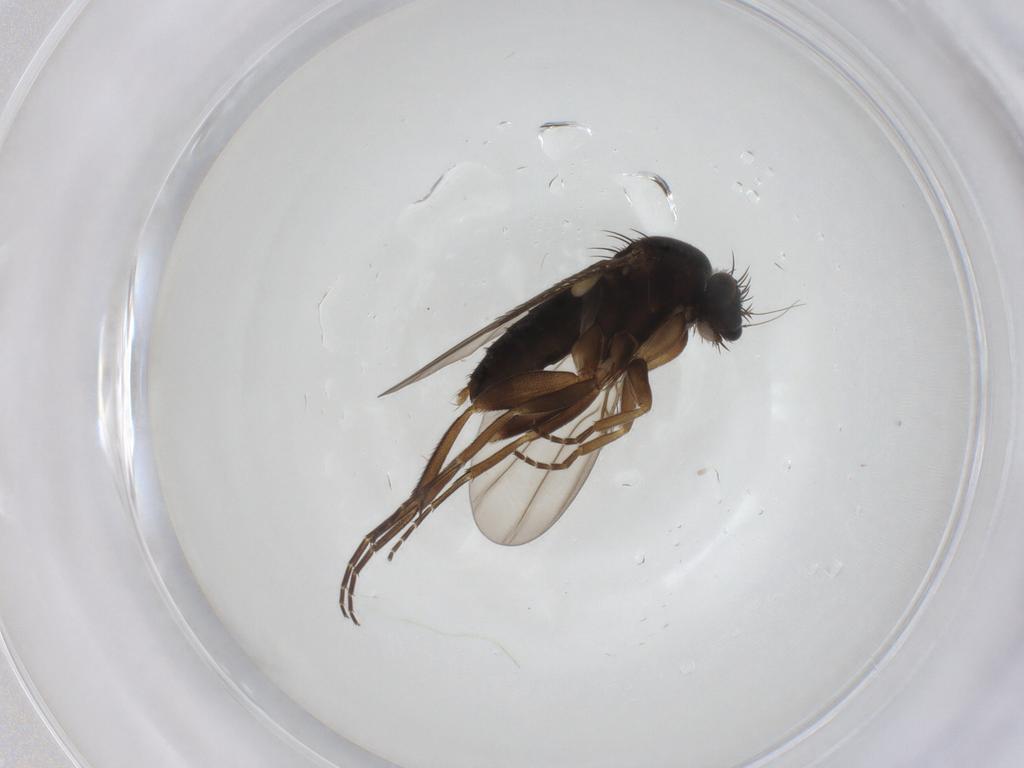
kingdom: Animalia
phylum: Arthropoda
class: Insecta
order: Diptera
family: Phoridae
